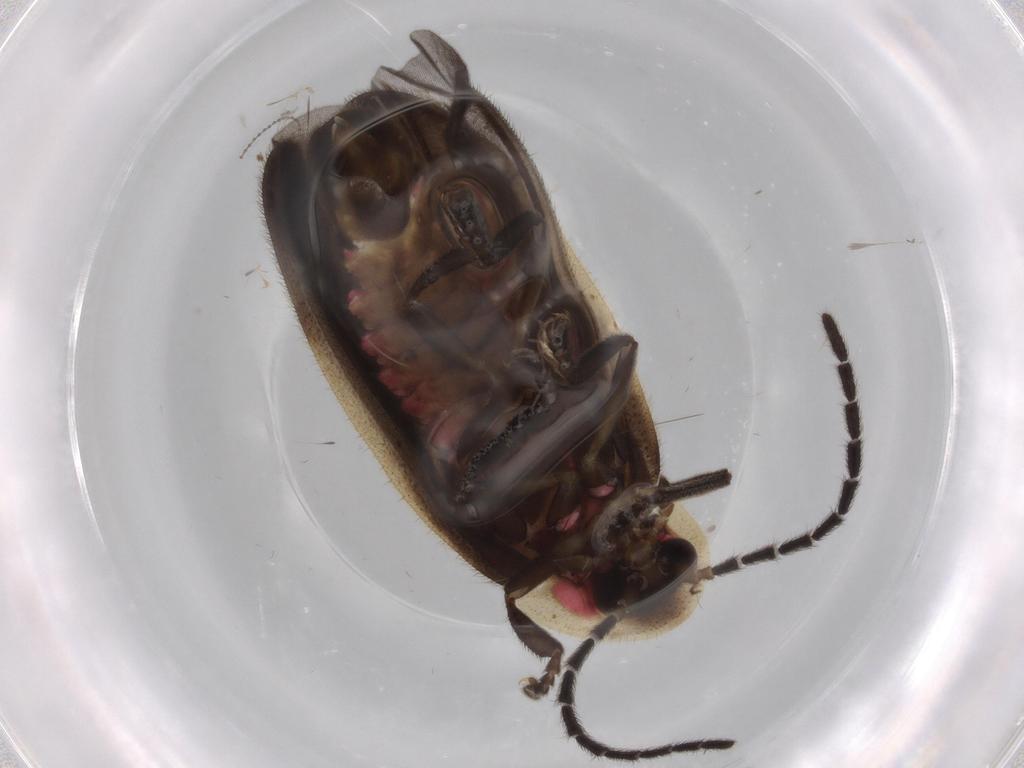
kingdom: Animalia
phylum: Arthropoda
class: Insecta
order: Coleoptera
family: Lampyridae
